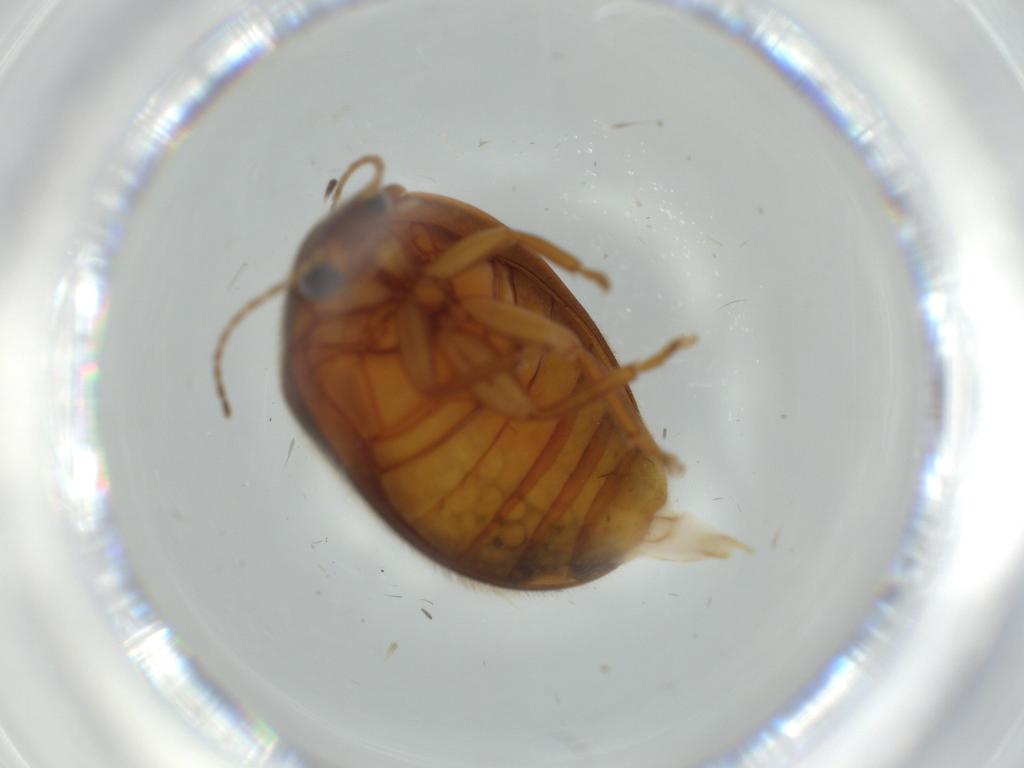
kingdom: Animalia
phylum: Arthropoda
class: Insecta
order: Coleoptera
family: Scirtidae
